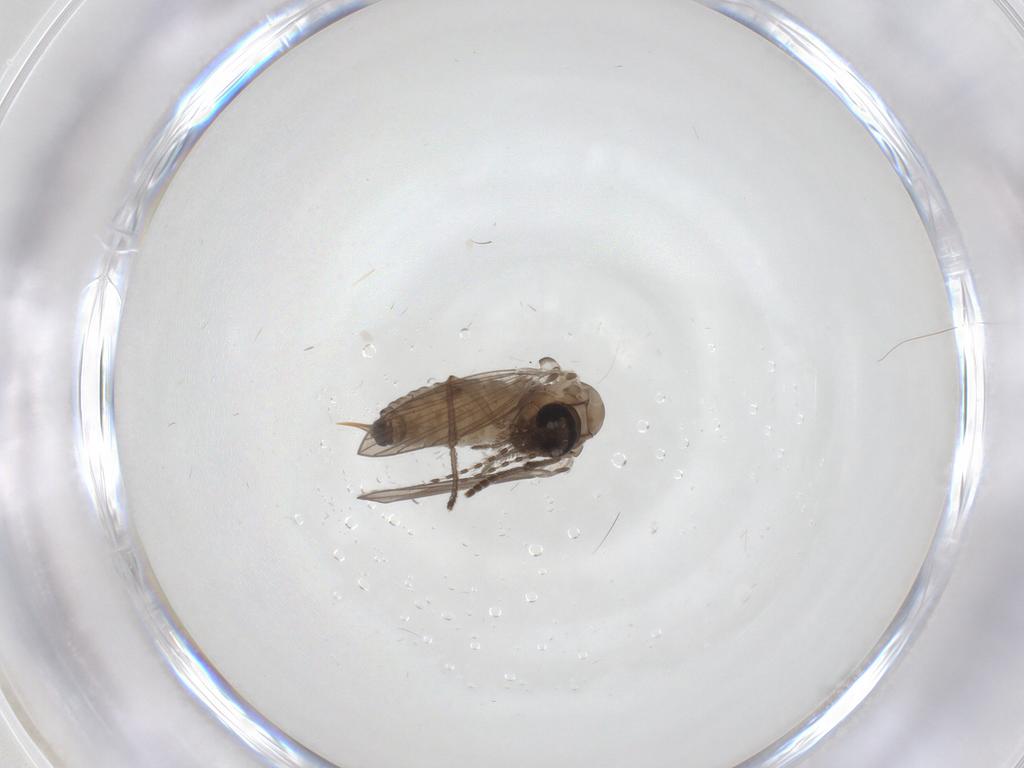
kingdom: Animalia
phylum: Arthropoda
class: Insecta
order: Diptera
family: Psychodidae
